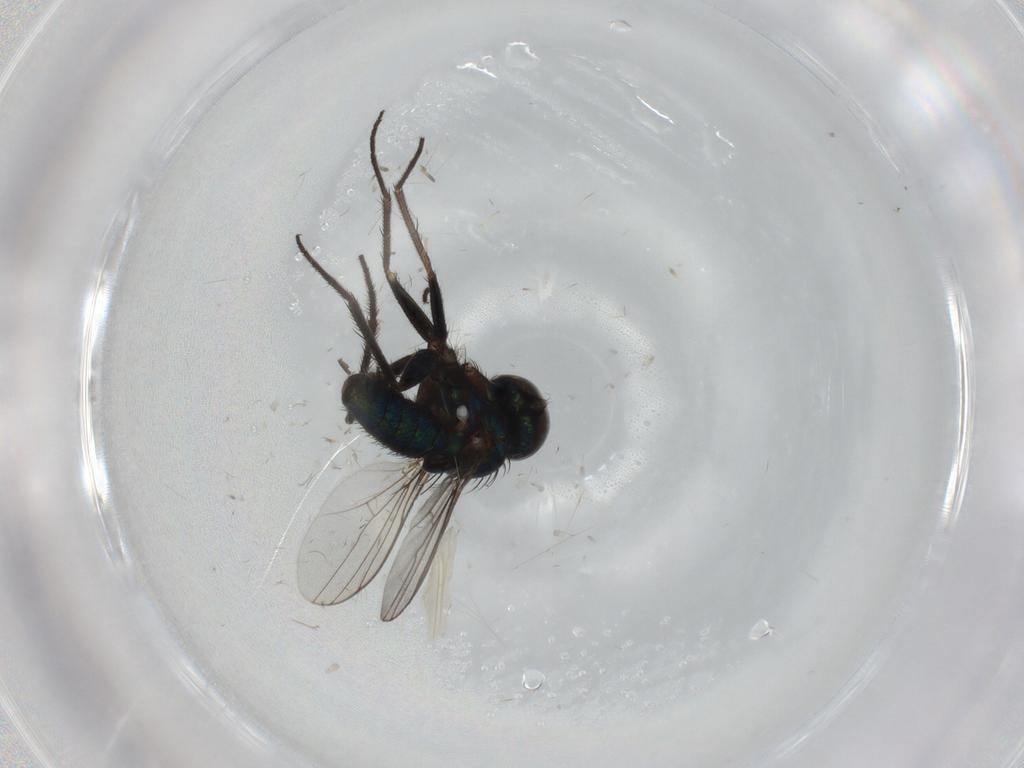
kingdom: Animalia
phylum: Arthropoda
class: Insecta
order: Diptera
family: Dolichopodidae
